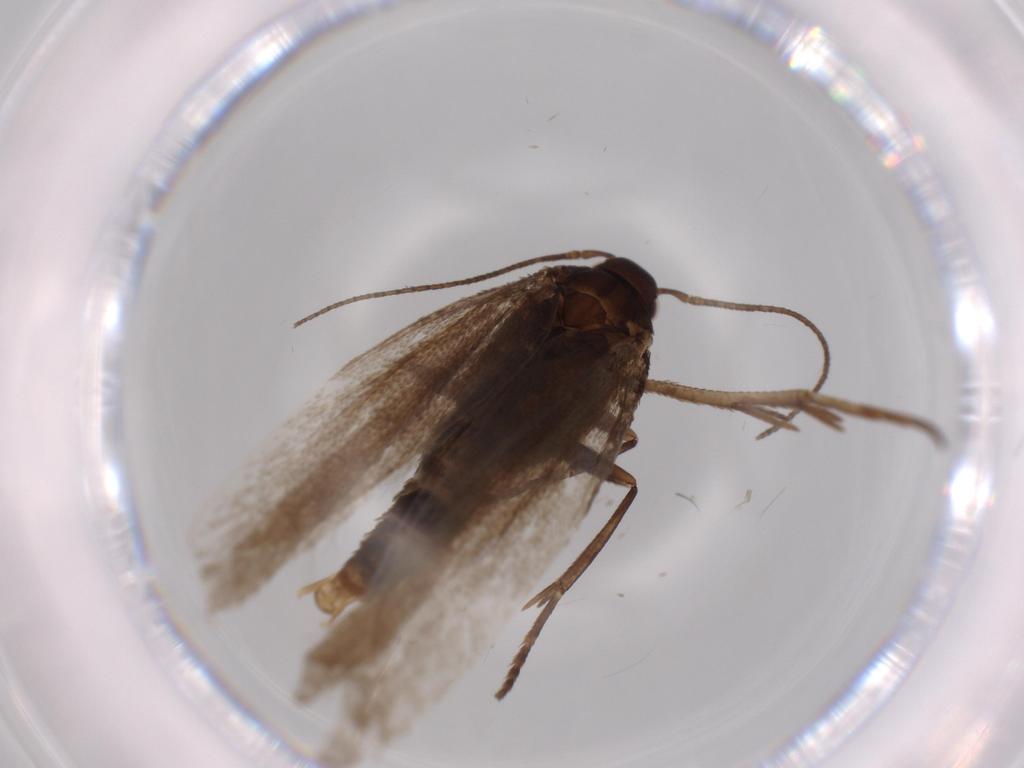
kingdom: Animalia
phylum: Arthropoda
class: Insecta
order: Lepidoptera
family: Gelechiidae
